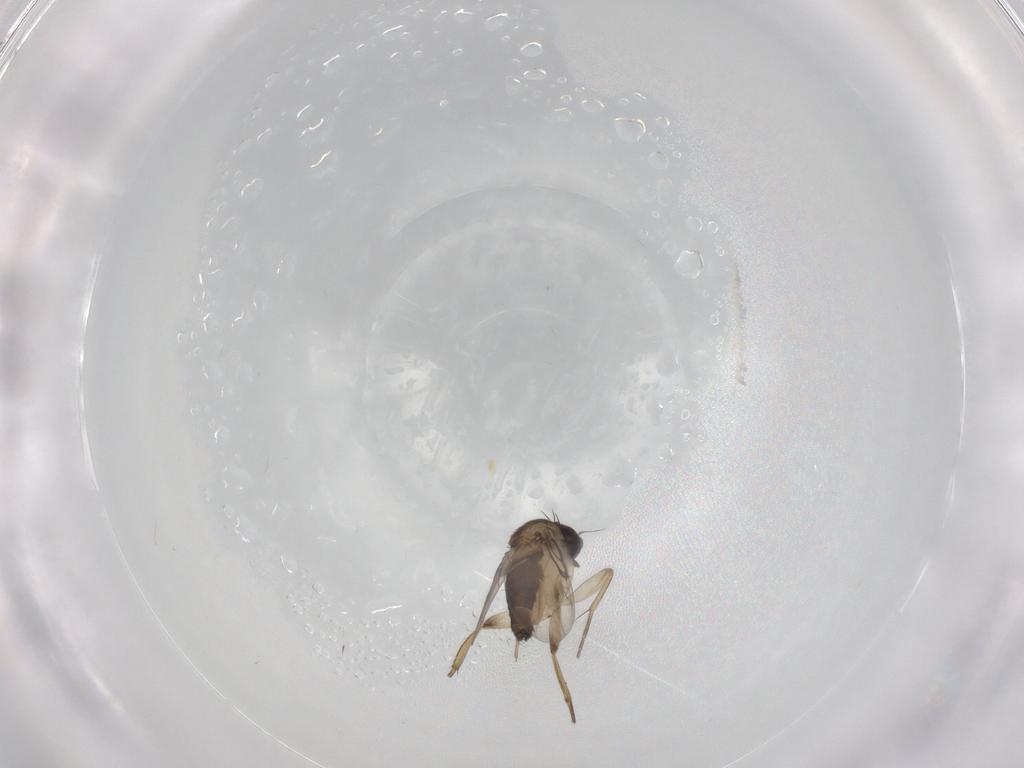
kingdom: Animalia
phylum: Arthropoda
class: Insecta
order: Diptera
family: Phoridae
